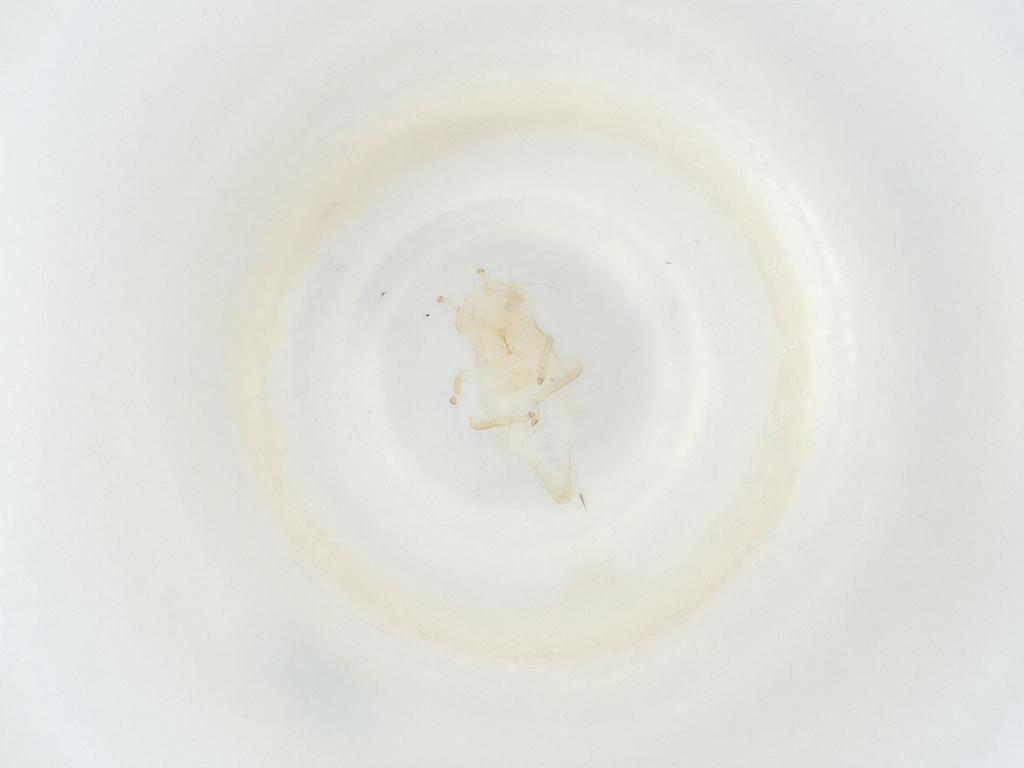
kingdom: Animalia
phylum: Arthropoda
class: Insecta
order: Hemiptera
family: Cicadellidae
